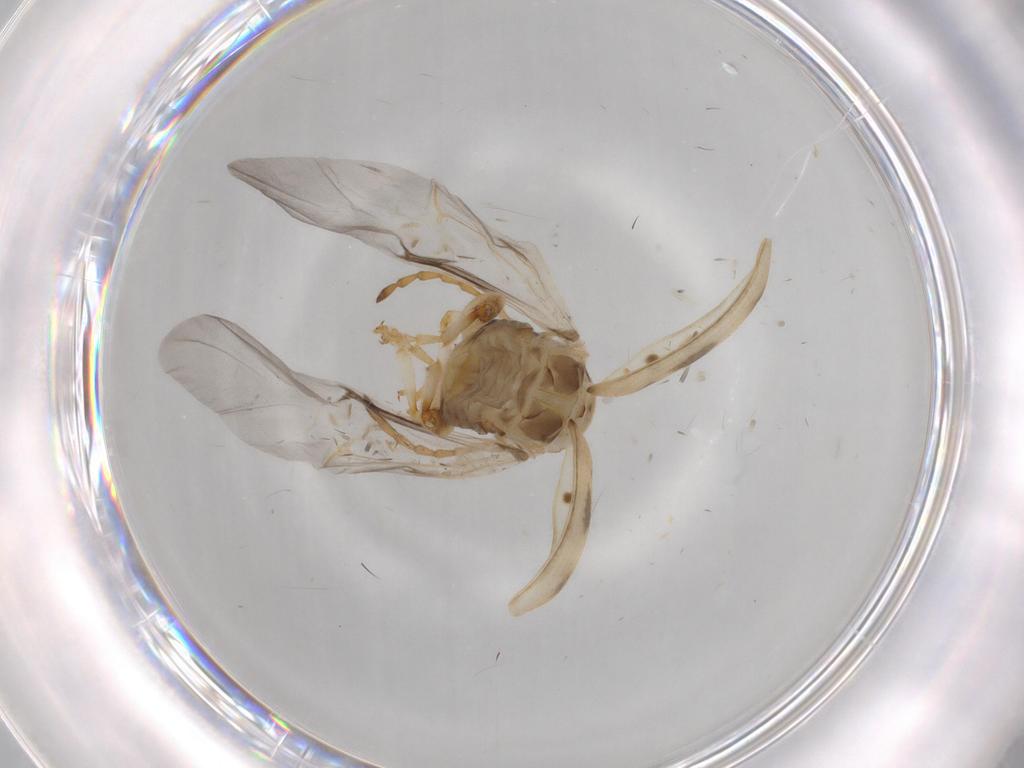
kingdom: Animalia
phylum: Arthropoda
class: Insecta
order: Coleoptera
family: Chrysomelidae
